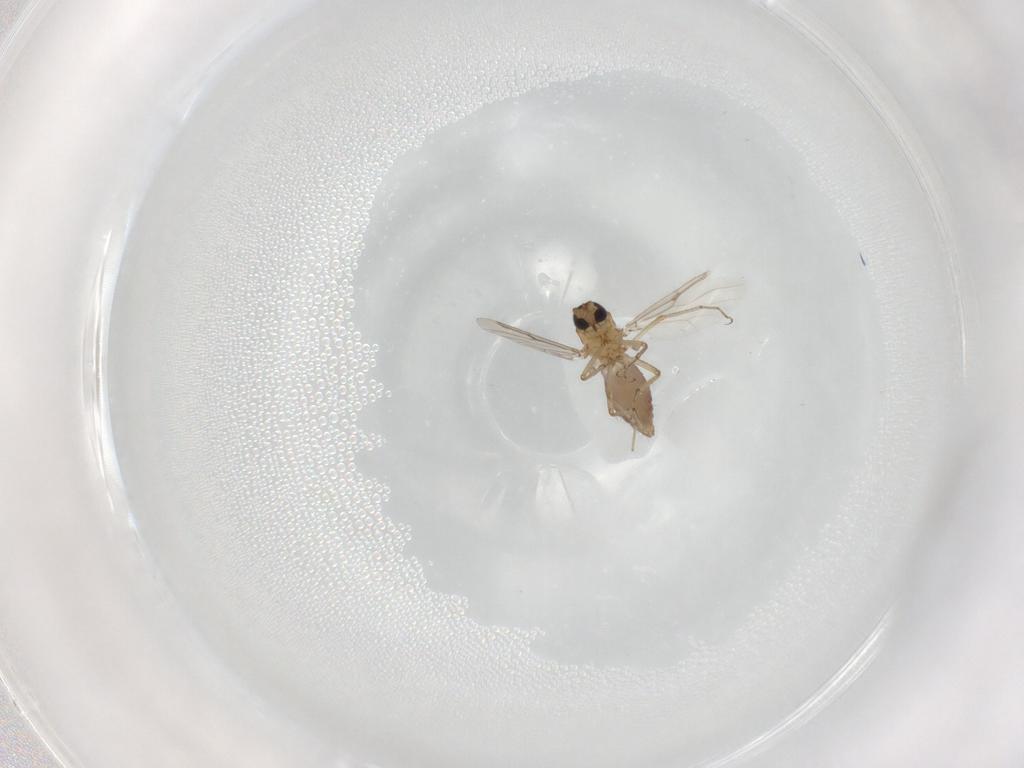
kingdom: Animalia
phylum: Arthropoda
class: Insecta
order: Diptera
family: Ceratopogonidae
